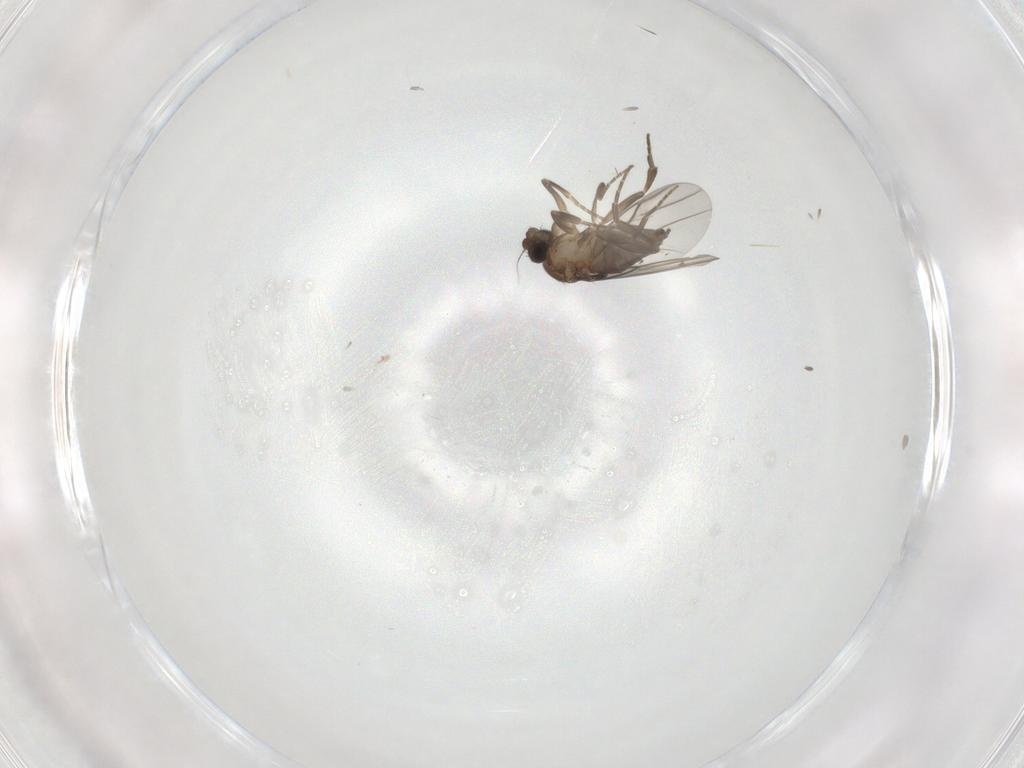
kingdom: Animalia
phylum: Arthropoda
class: Insecta
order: Diptera
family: Phoridae
